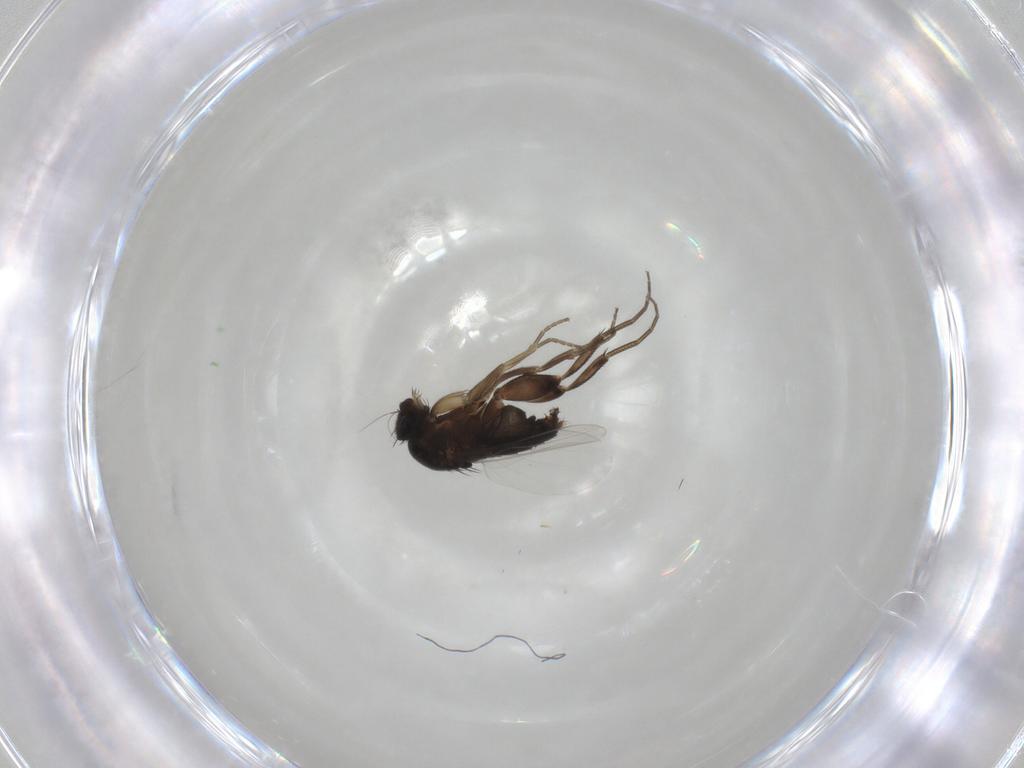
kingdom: Animalia
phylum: Arthropoda
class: Insecta
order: Diptera
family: Phoridae
